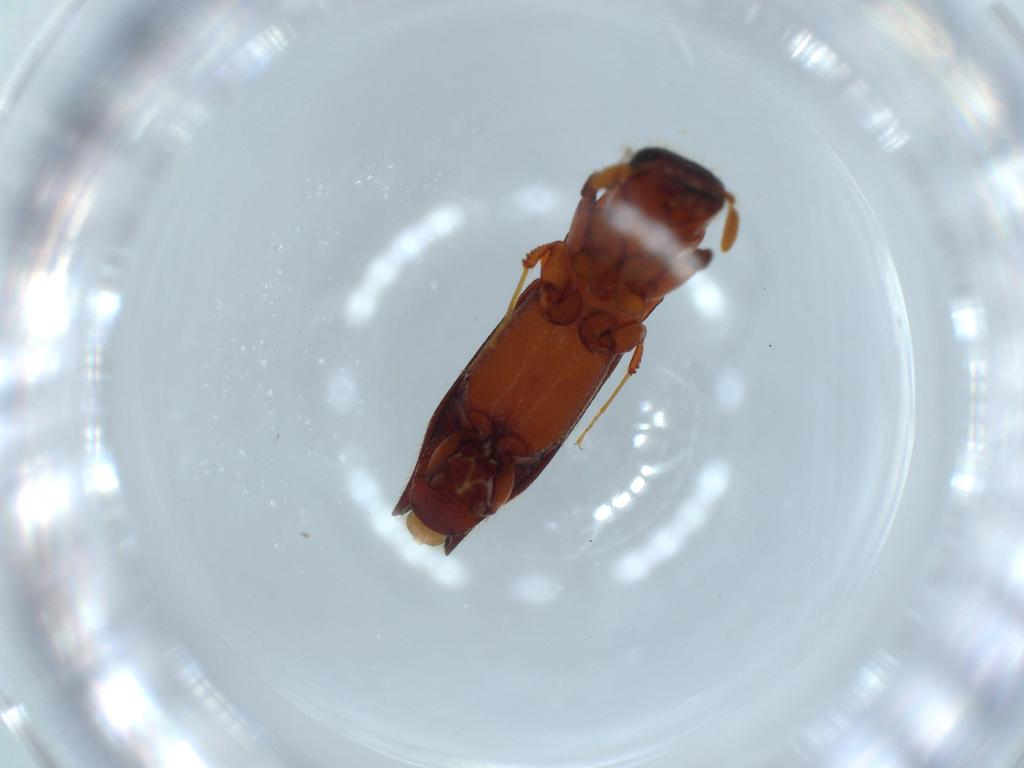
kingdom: Animalia
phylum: Arthropoda
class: Insecta
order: Coleoptera
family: Curculionidae
